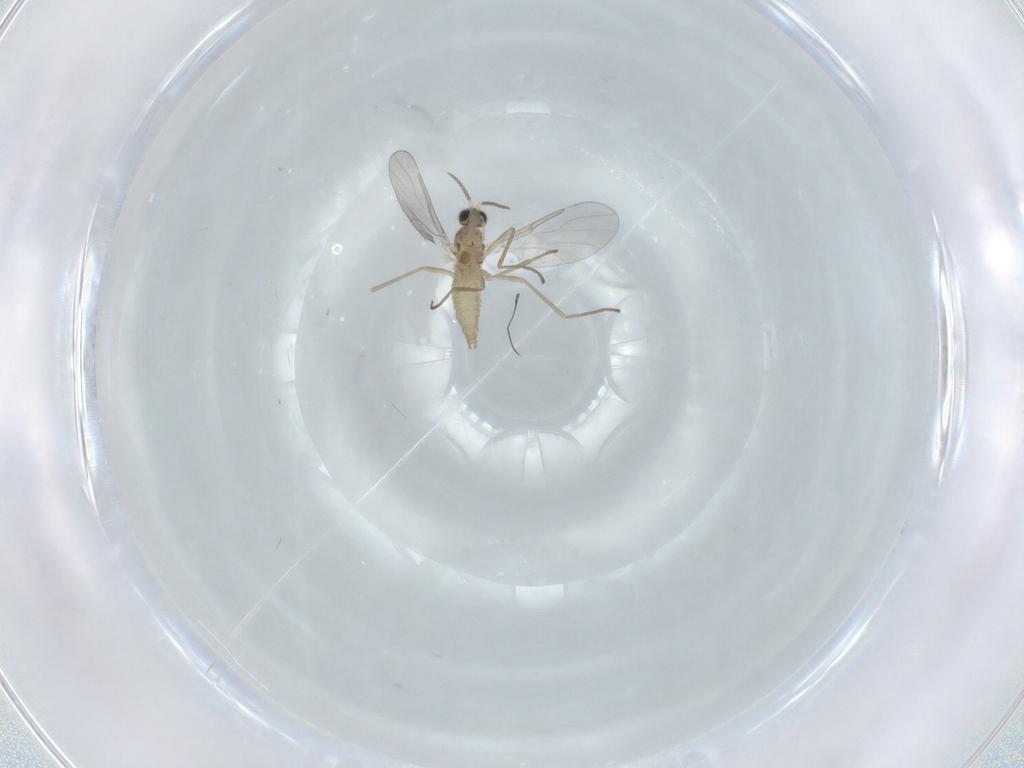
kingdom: Animalia
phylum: Arthropoda
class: Insecta
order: Diptera
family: Cecidomyiidae
